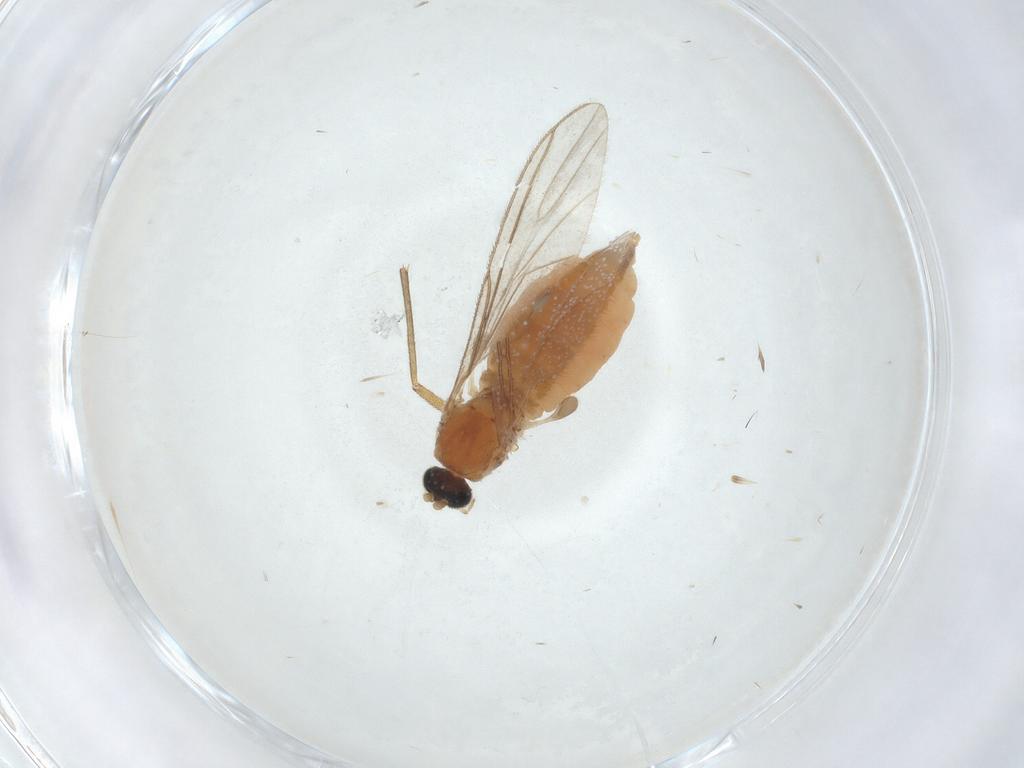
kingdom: Animalia
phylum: Arthropoda
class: Insecta
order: Diptera
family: Sciaridae
